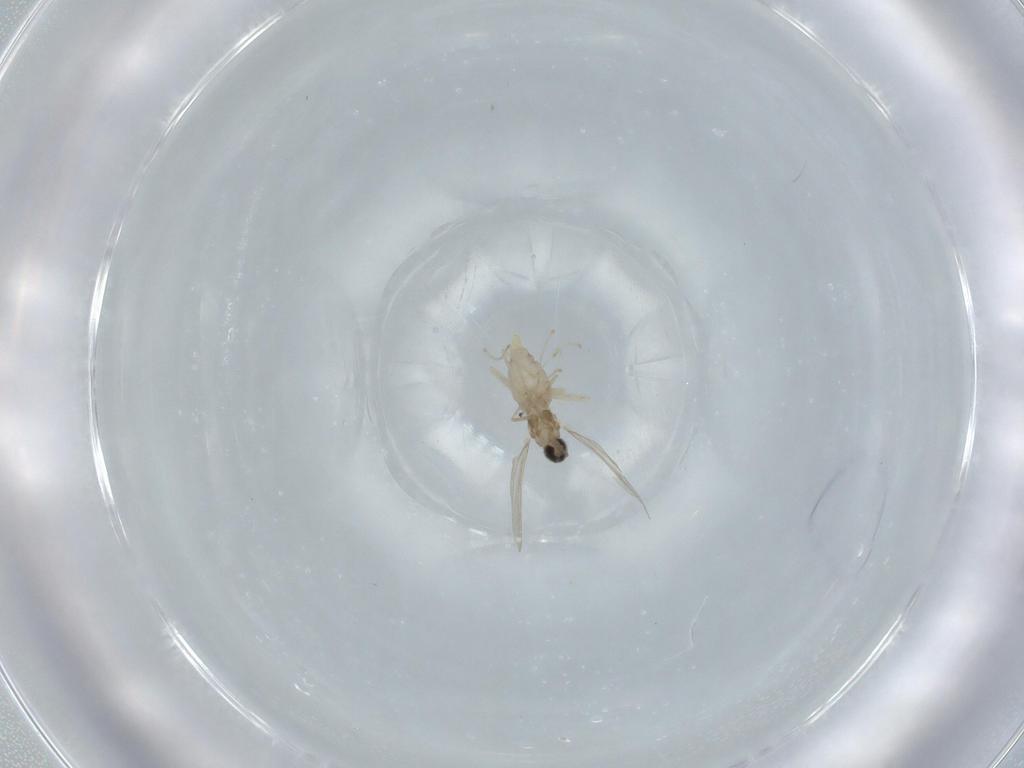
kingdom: Animalia
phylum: Arthropoda
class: Insecta
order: Diptera
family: Cecidomyiidae
